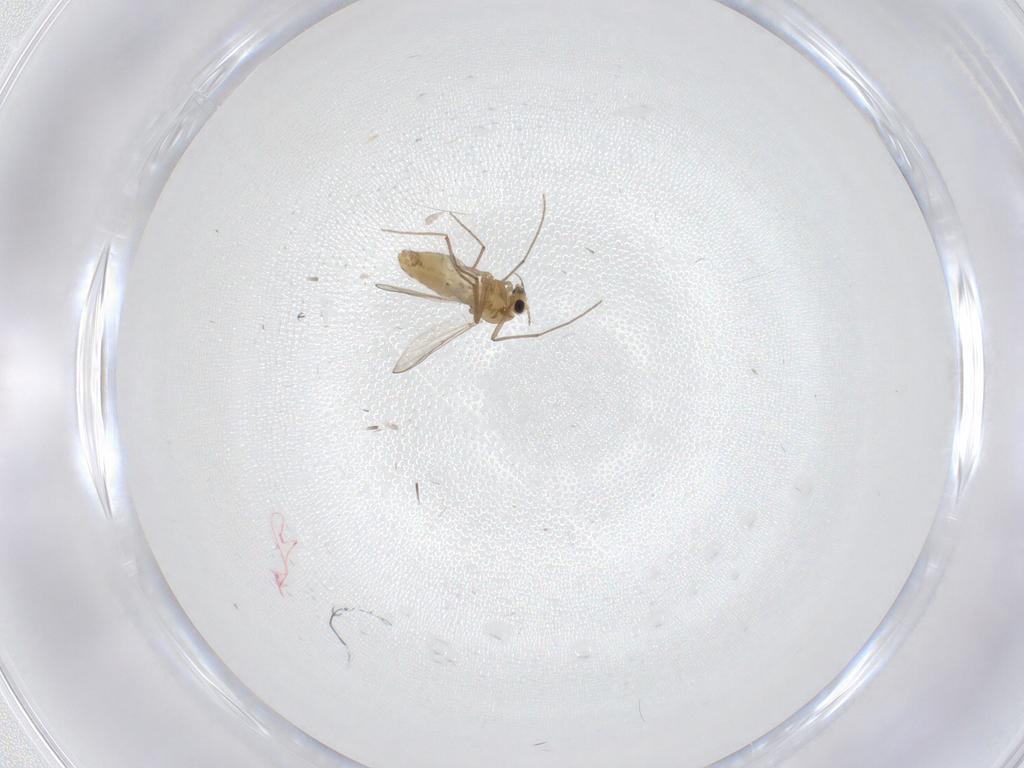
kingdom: Animalia
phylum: Arthropoda
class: Insecta
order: Diptera
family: Chironomidae
